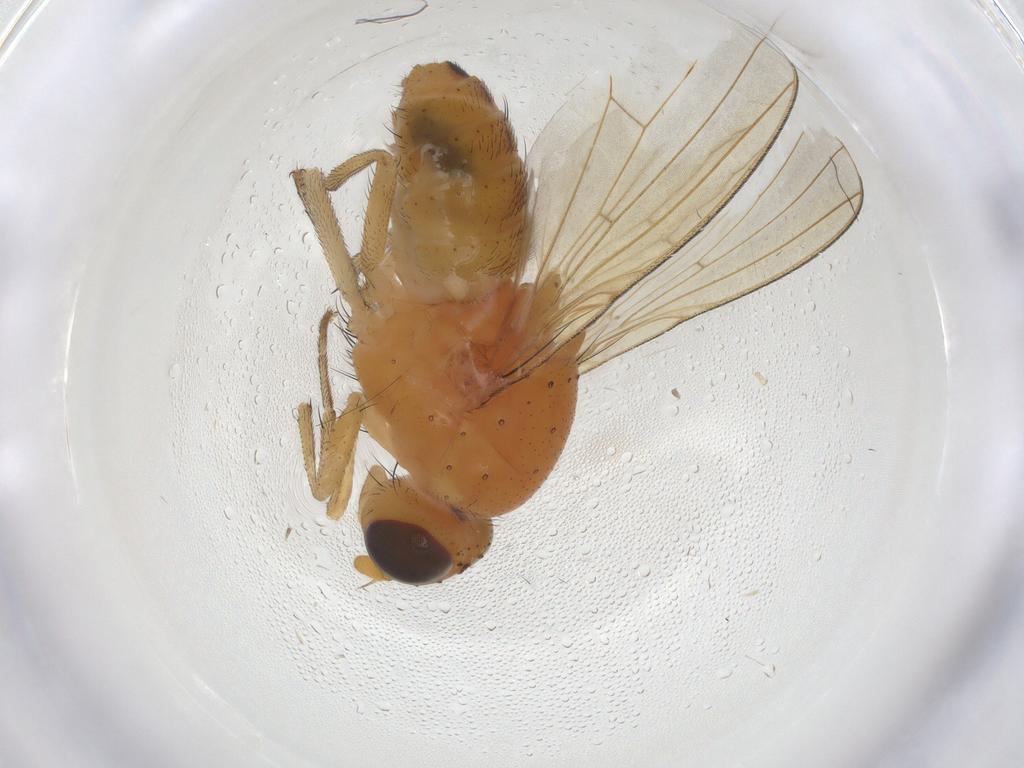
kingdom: Animalia
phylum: Arthropoda
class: Insecta
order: Diptera
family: Lauxaniidae
